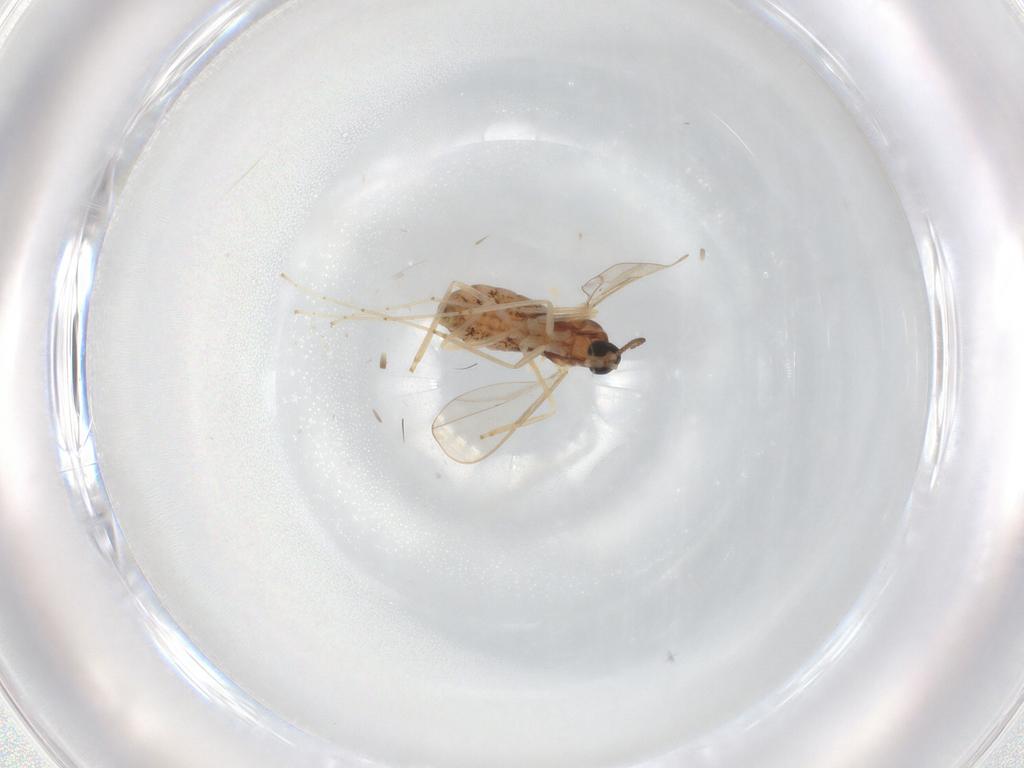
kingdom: Animalia
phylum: Arthropoda
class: Insecta
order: Diptera
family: Cecidomyiidae
